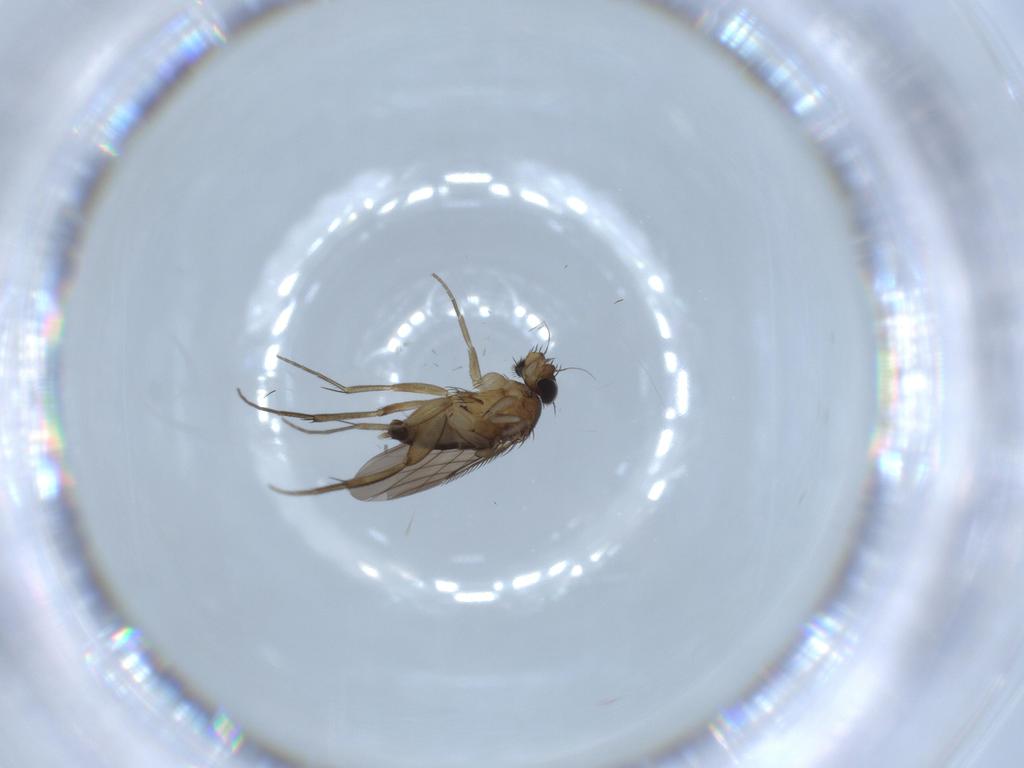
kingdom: Animalia
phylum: Arthropoda
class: Insecta
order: Diptera
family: Phoridae
